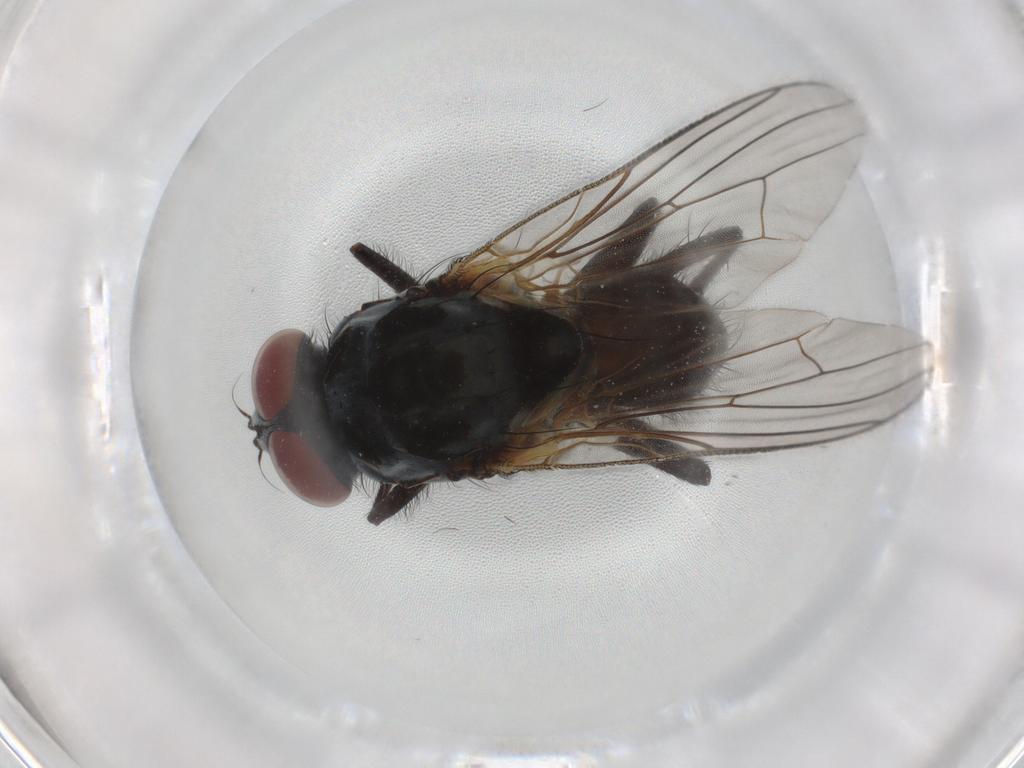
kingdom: Animalia
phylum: Arthropoda
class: Insecta
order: Diptera
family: Anthomyiidae
